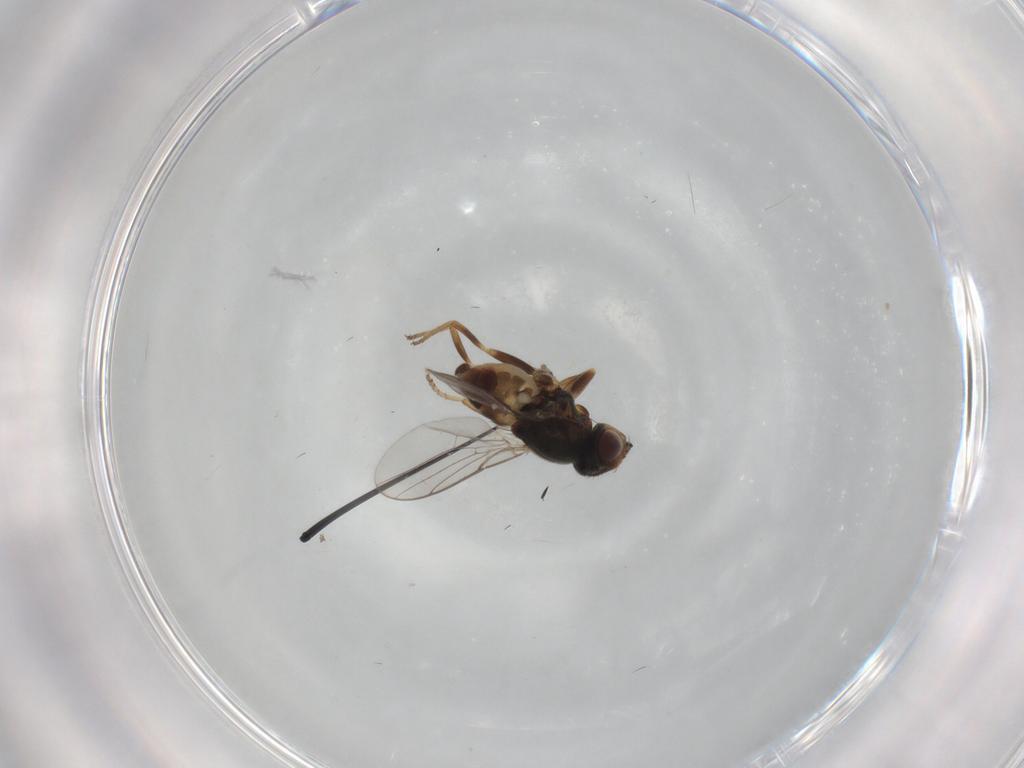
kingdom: Animalia
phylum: Arthropoda
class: Insecta
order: Diptera
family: Chloropidae
